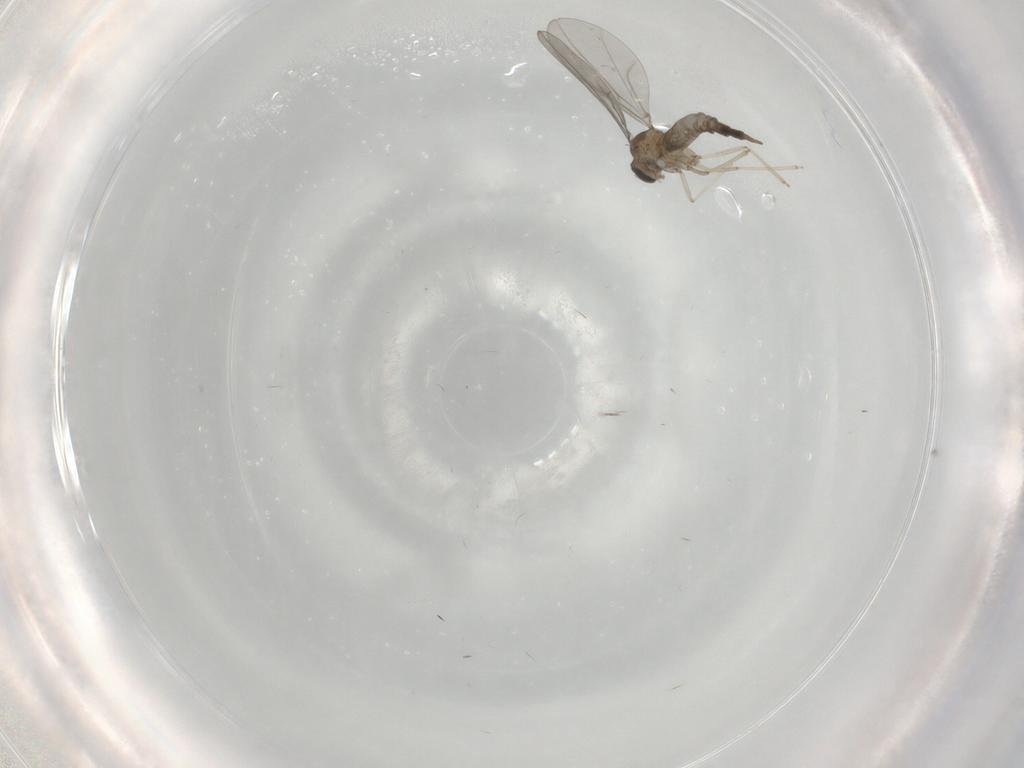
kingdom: Animalia
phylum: Arthropoda
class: Insecta
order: Diptera
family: Cecidomyiidae
